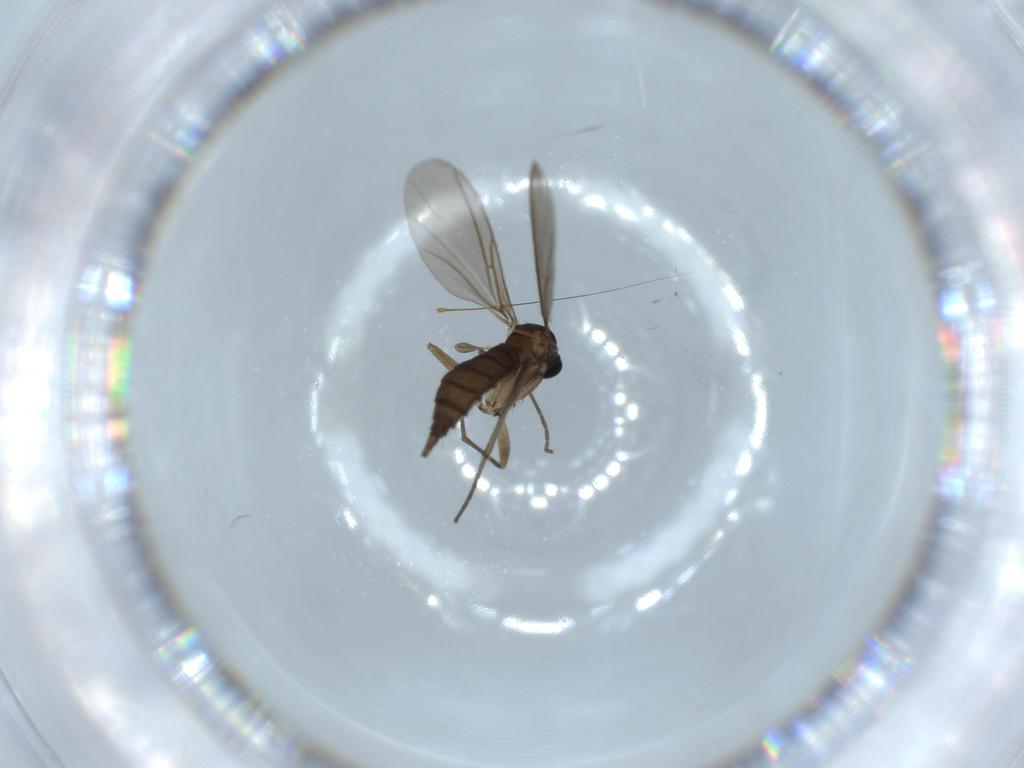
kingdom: Animalia
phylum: Arthropoda
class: Insecta
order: Diptera
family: Sciaridae
